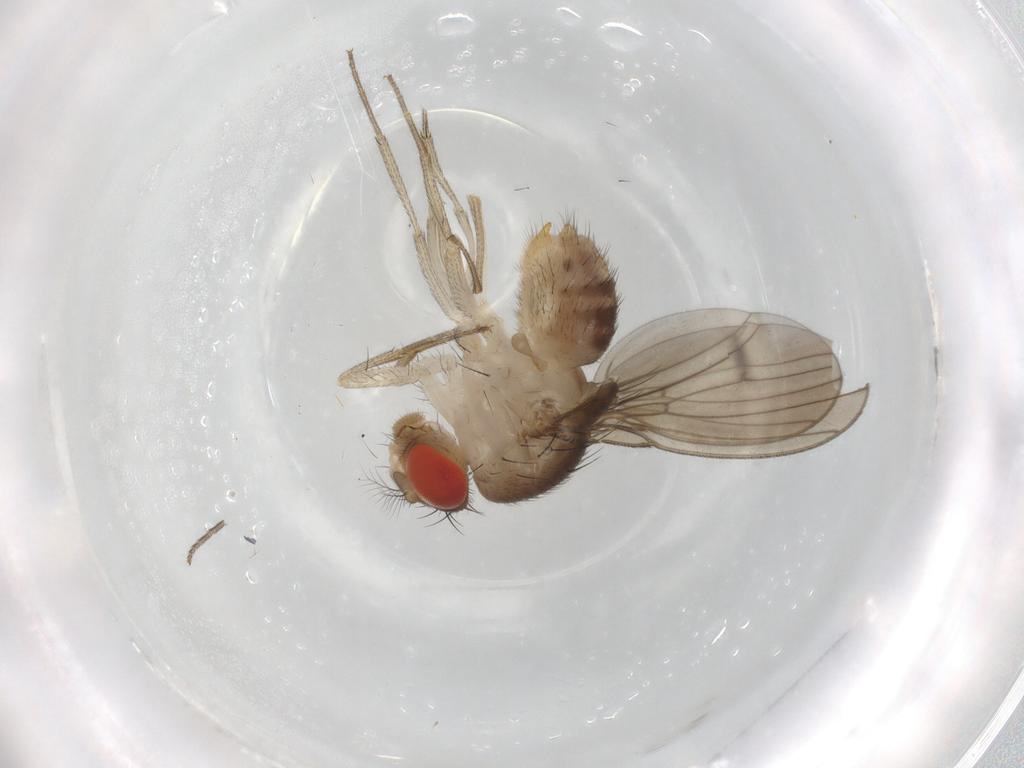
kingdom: Animalia
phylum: Arthropoda
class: Insecta
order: Diptera
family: Drosophilidae
